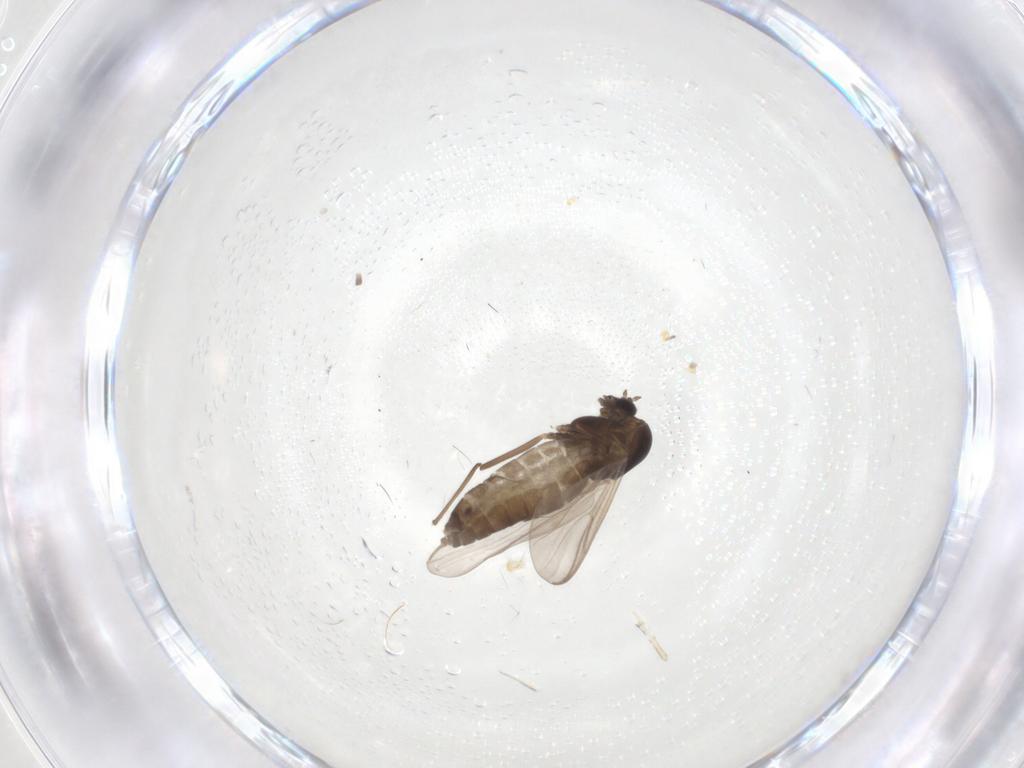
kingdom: Animalia
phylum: Arthropoda
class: Insecta
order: Diptera
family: Chironomidae
